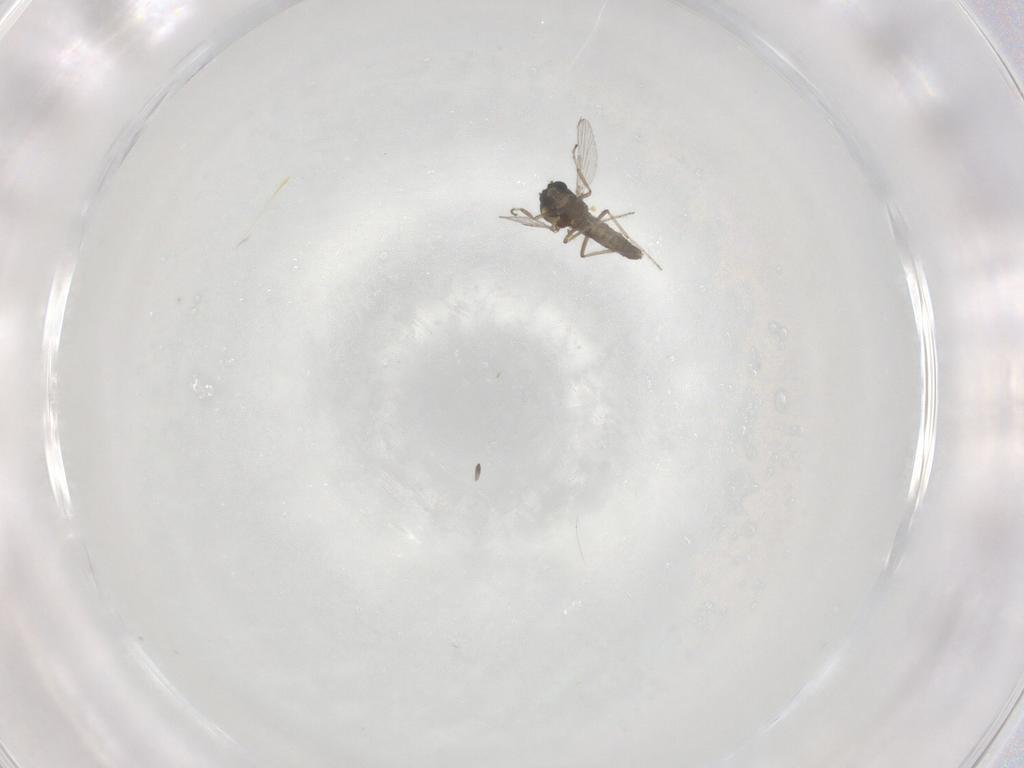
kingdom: Animalia
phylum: Arthropoda
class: Insecta
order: Diptera
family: Ceratopogonidae
